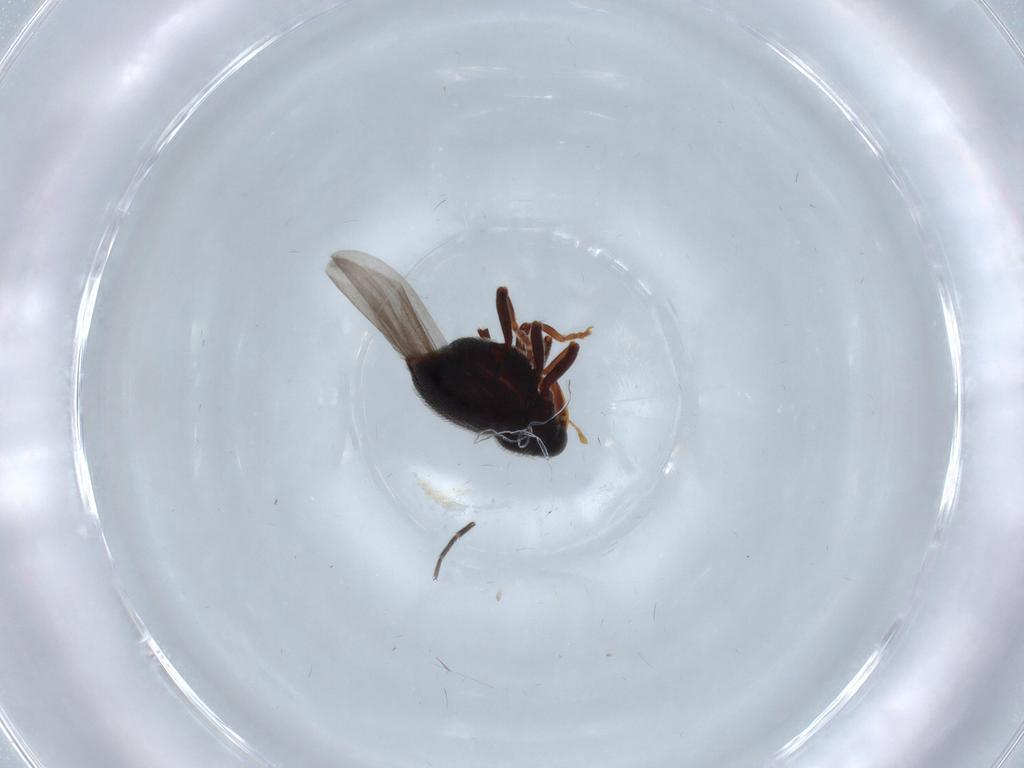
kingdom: Animalia
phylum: Arthropoda
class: Insecta
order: Coleoptera
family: Curculionidae
